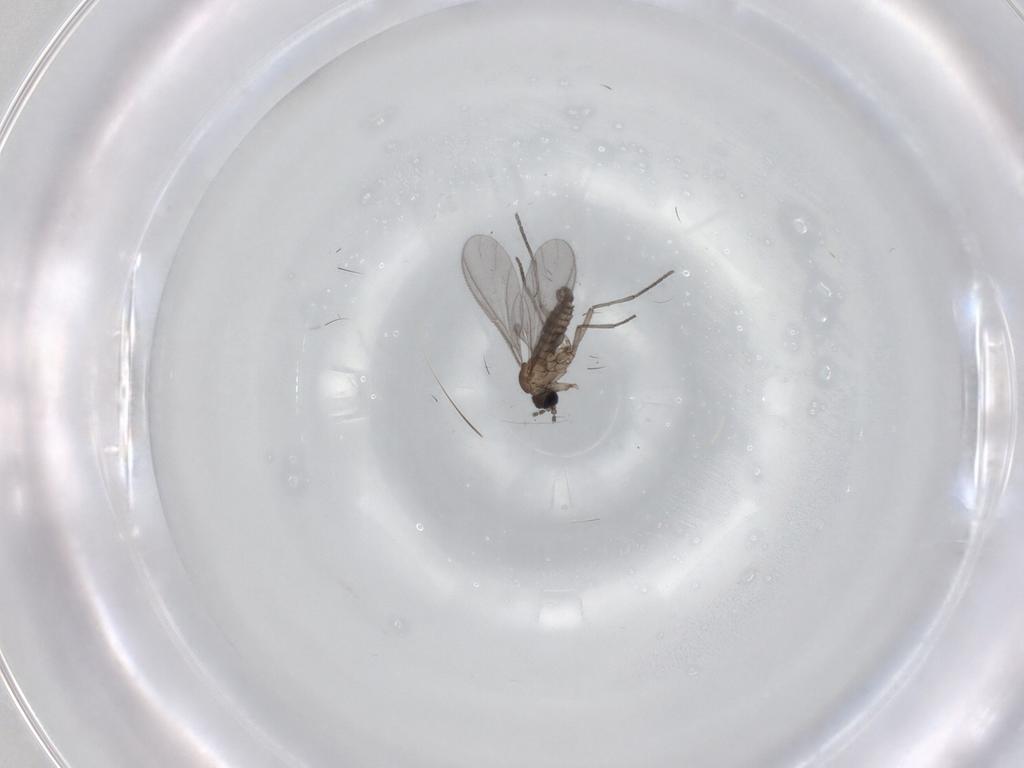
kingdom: Animalia
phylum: Arthropoda
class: Insecta
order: Diptera
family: Sciaridae
